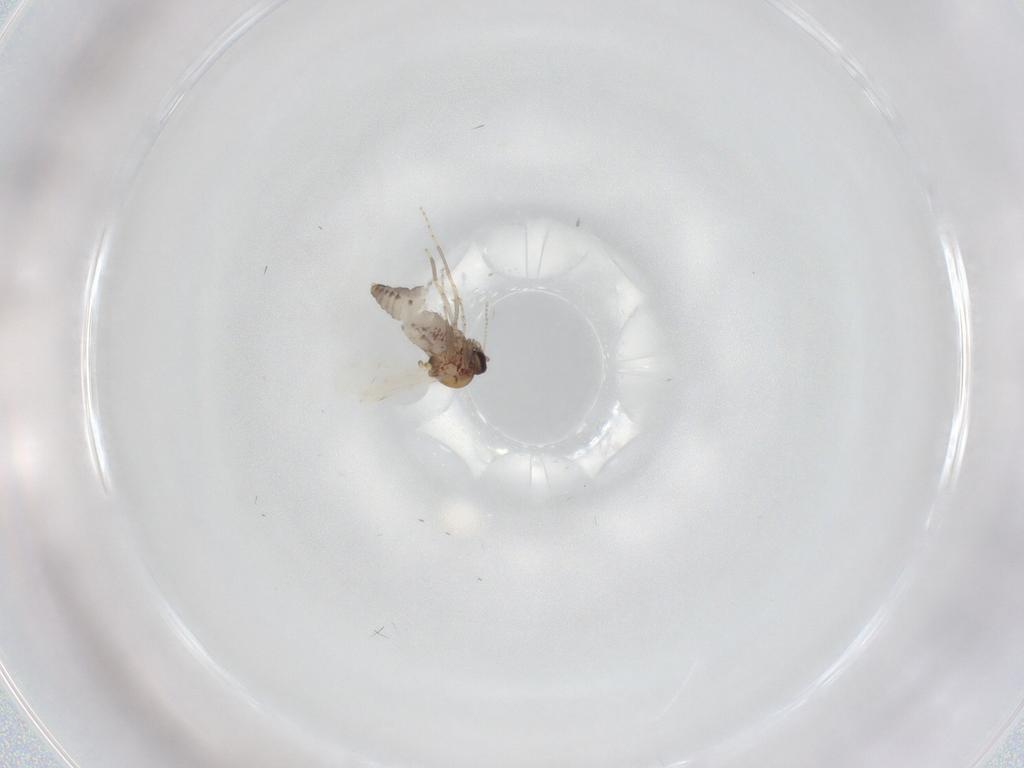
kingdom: Animalia
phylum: Arthropoda
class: Insecta
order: Diptera
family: Ceratopogonidae
